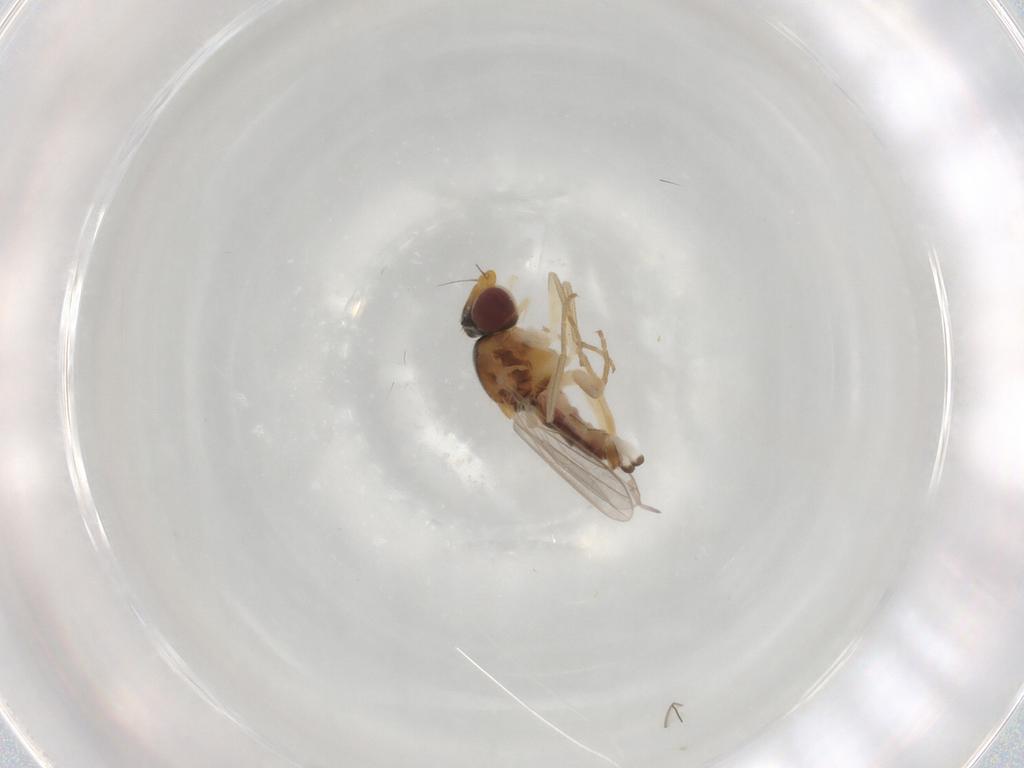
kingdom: Animalia
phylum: Arthropoda
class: Insecta
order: Diptera
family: Chloropidae
